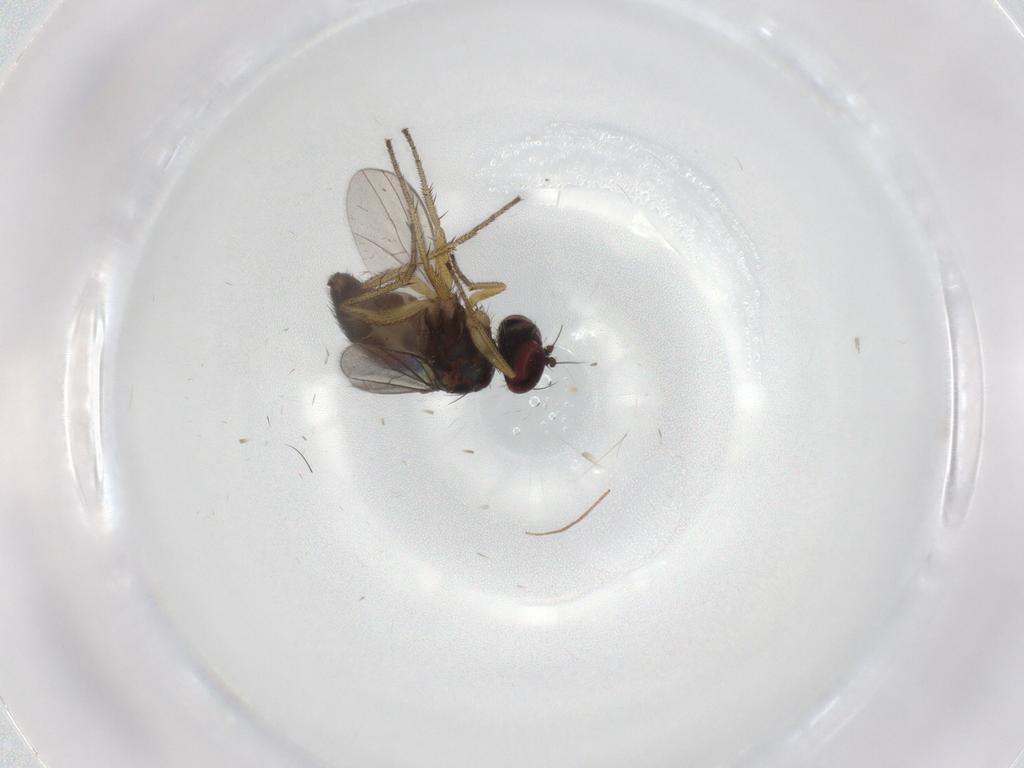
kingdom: Animalia
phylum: Arthropoda
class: Insecta
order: Diptera
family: Dolichopodidae
